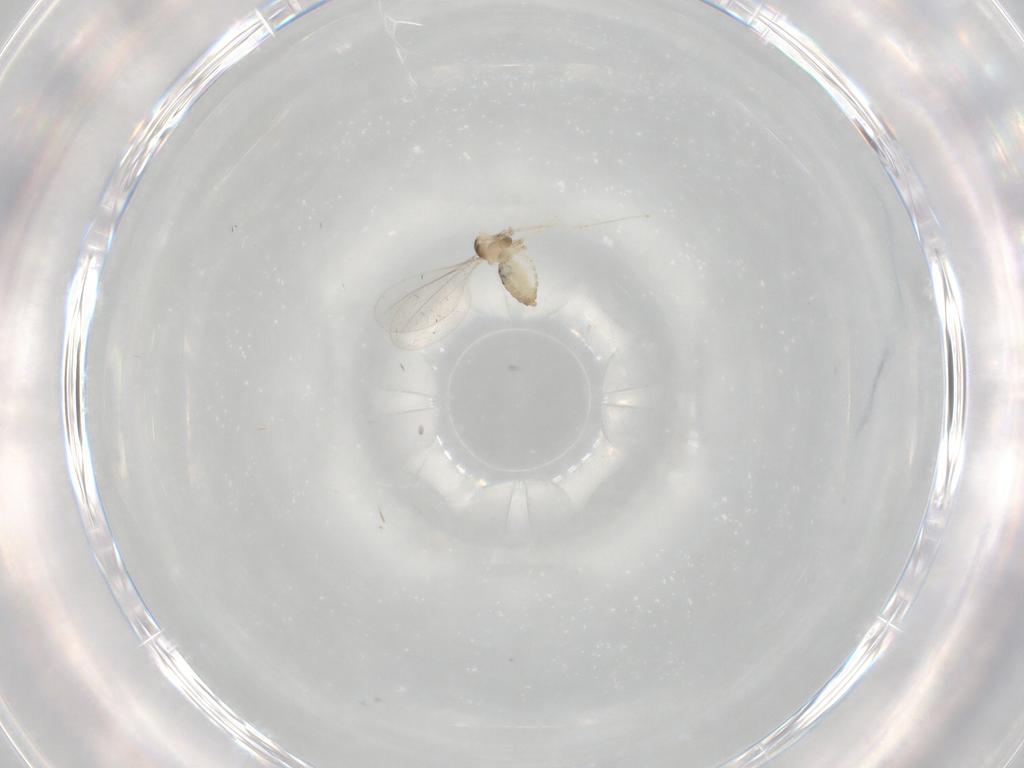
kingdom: Animalia
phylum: Arthropoda
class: Insecta
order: Diptera
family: Cecidomyiidae
